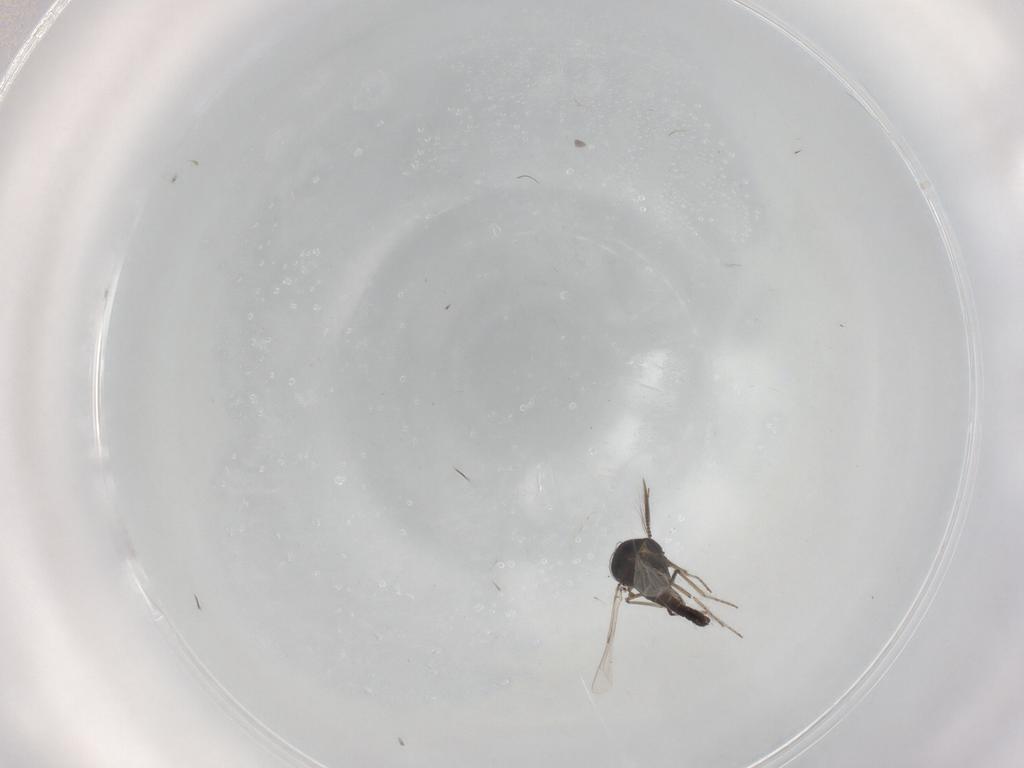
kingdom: Animalia
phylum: Arthropoda
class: Insecta
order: Diptera
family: Ceratopogonidae
